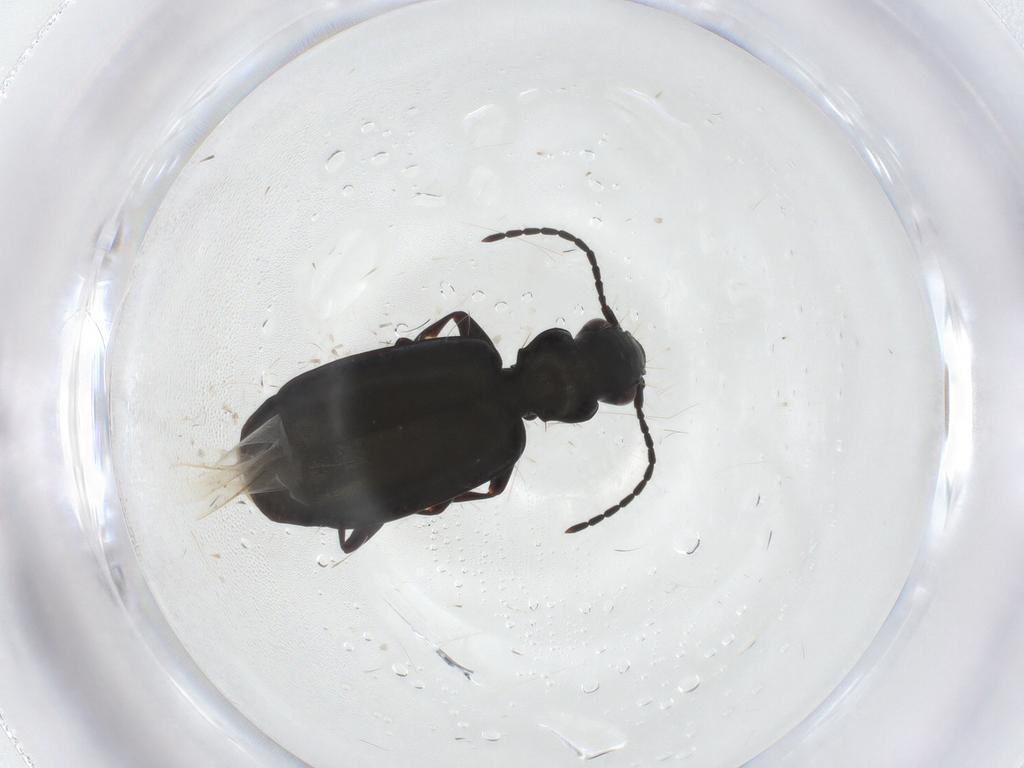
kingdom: Animalia
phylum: Arthropoda
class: Insecta
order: Coleoptera
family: Carabidae
